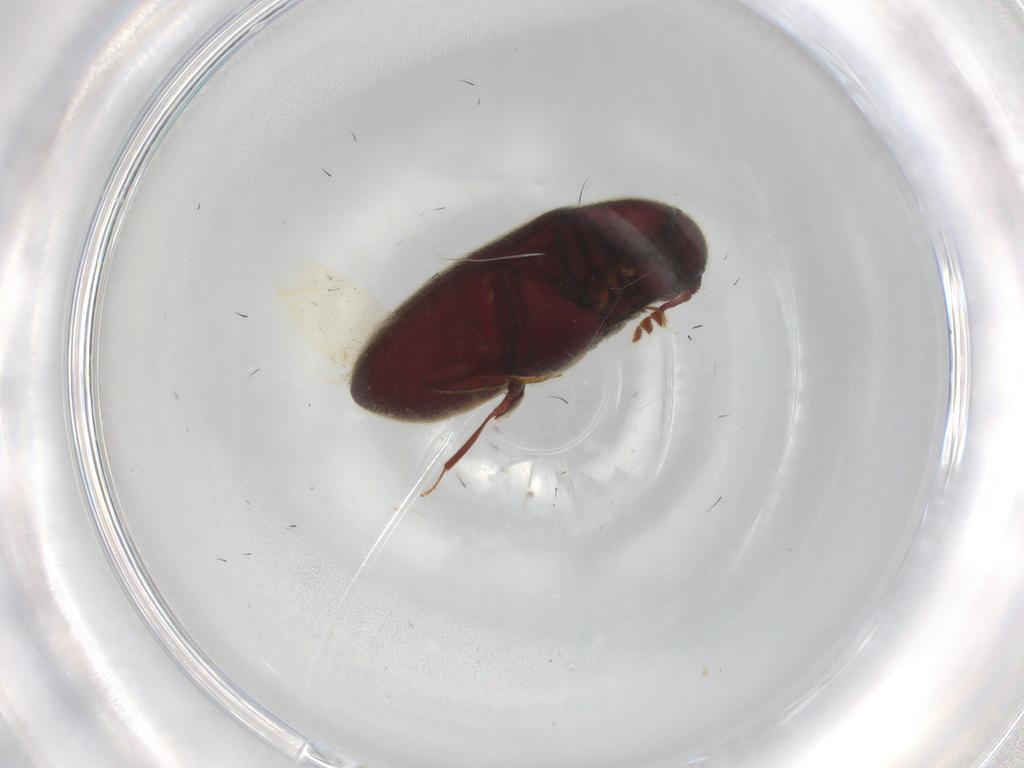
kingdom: Animalia
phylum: Arthropoda
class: Insecta
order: Coleoptera
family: Throscidae
